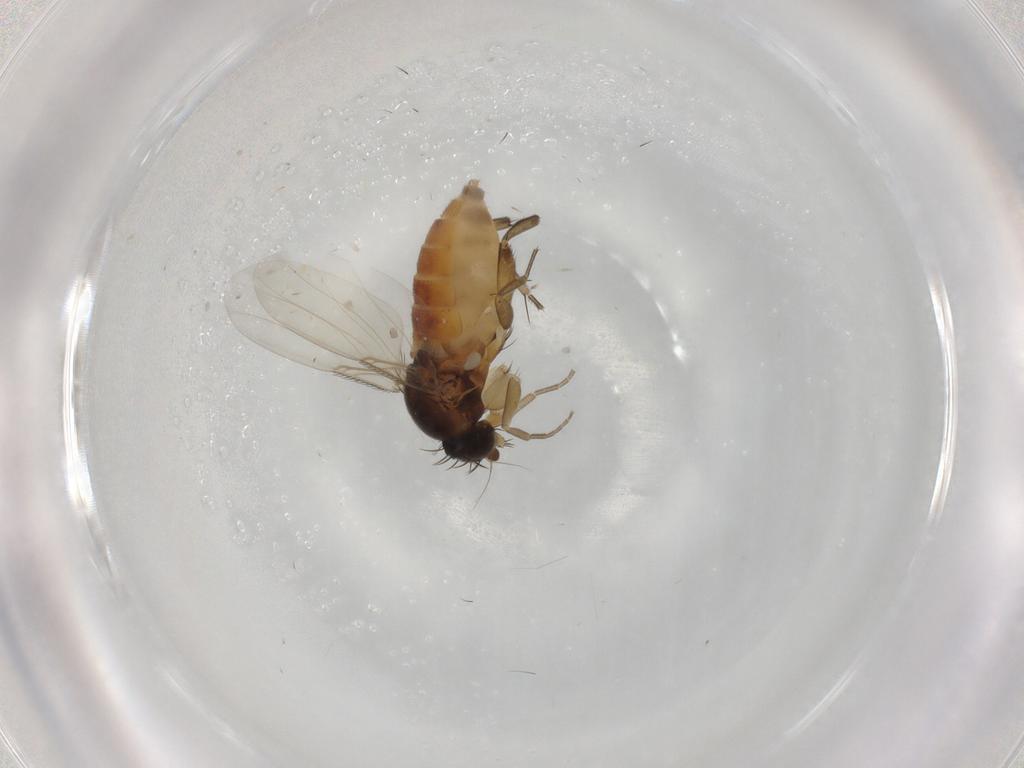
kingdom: Animalia
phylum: Arthropoda
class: Insecta
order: Diptera
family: Phoridae
